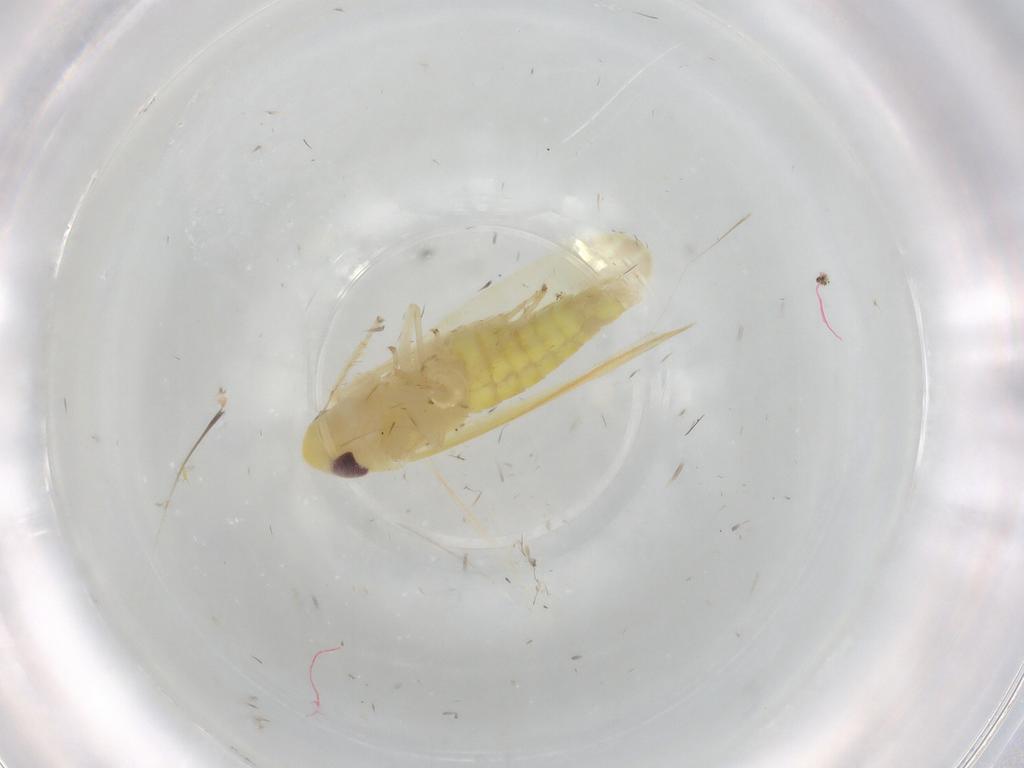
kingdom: Animalia
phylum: Arthropoda
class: Insecta
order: Hemiptera
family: Cicadellidae
